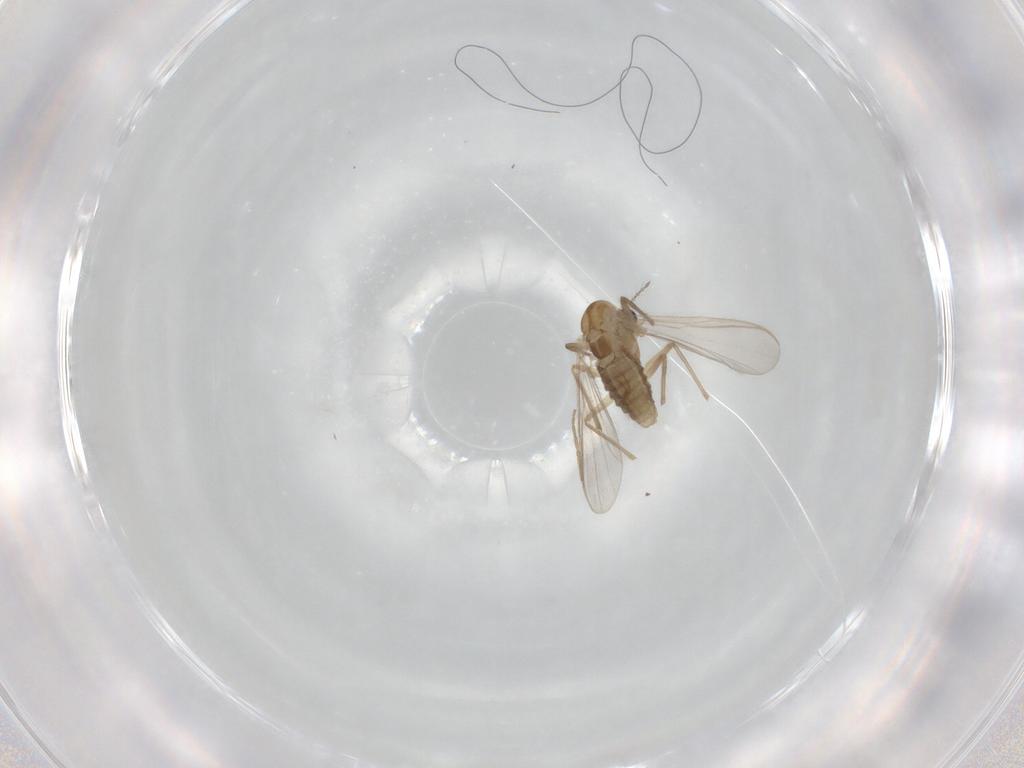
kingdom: Animalia
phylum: Arthropoda
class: Insecta
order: Diptera
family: Chironomidae
